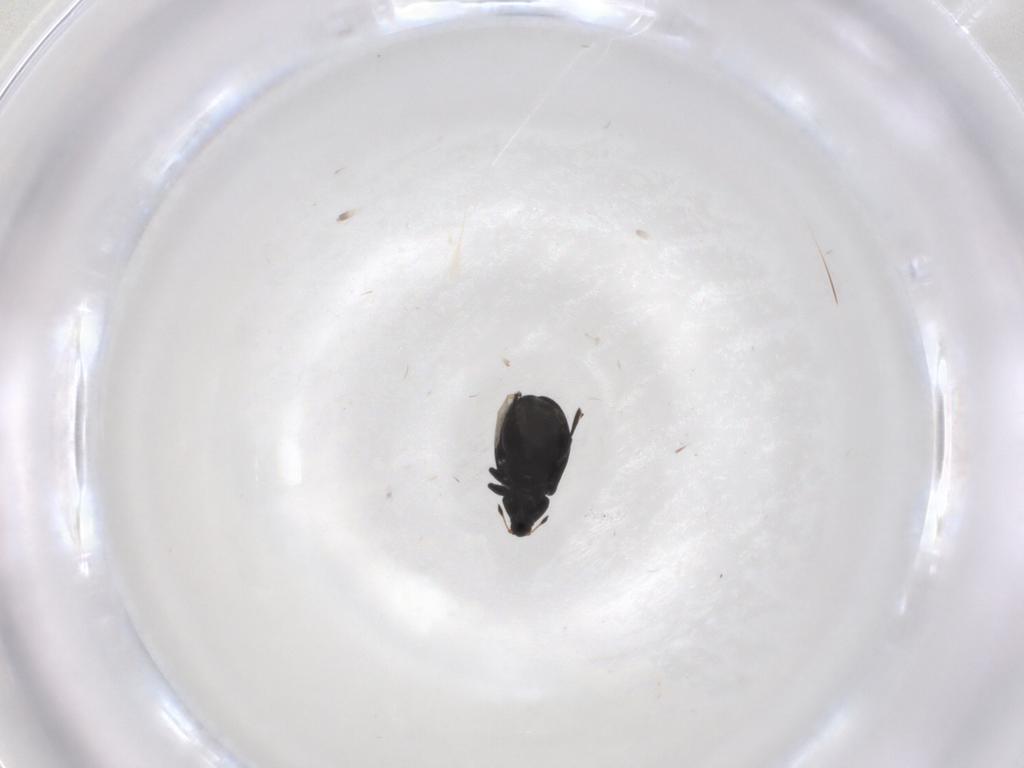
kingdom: Animalia
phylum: Arthropoda
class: Insecta
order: Coleoptera
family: Curculionidae
